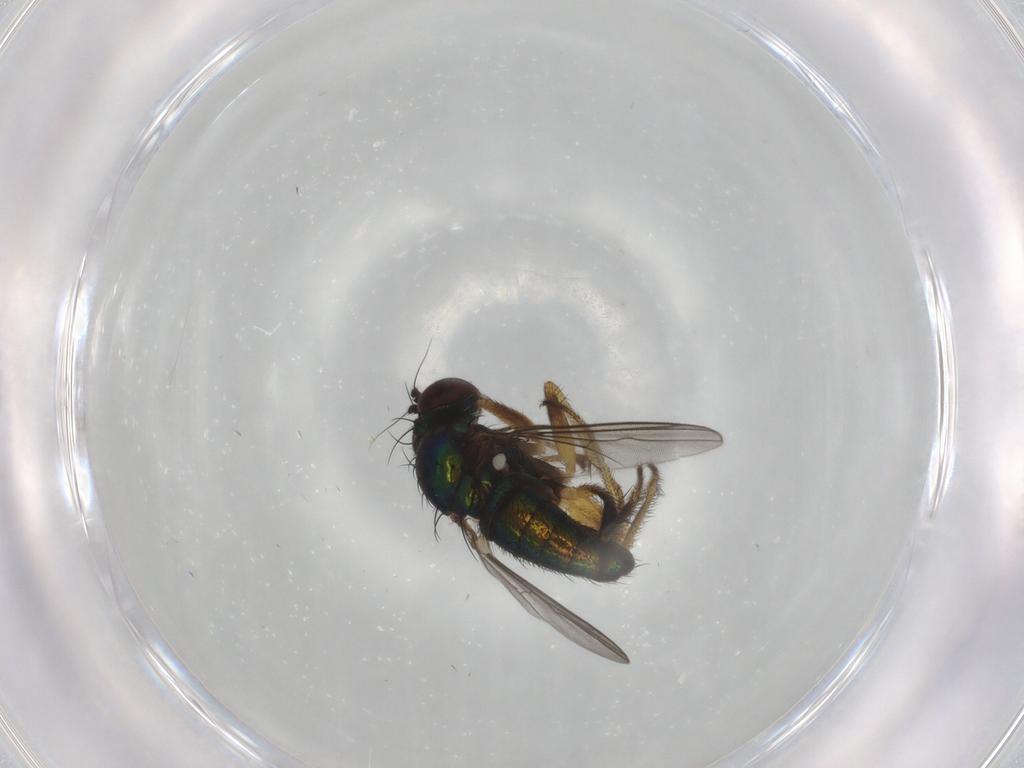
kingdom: Animalia
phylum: Arthropoda
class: Insecta
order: Diptera
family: Dolichopodidae
